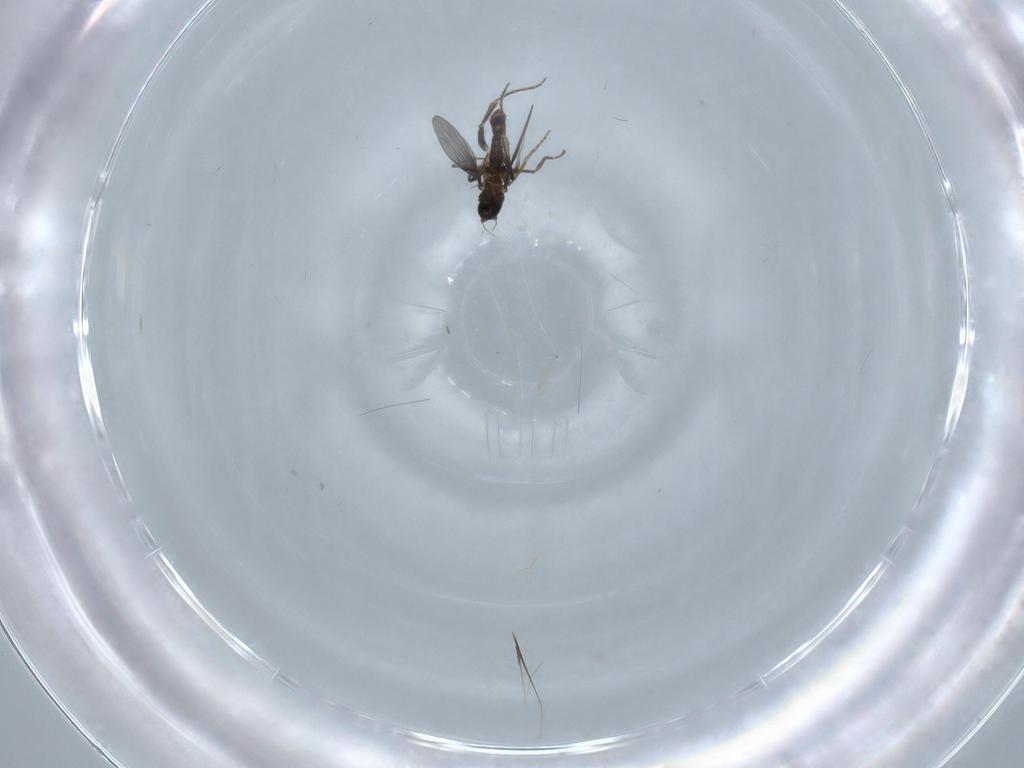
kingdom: Animalia
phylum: Arthropoda
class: Insecta
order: Diptera
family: Phoridae
